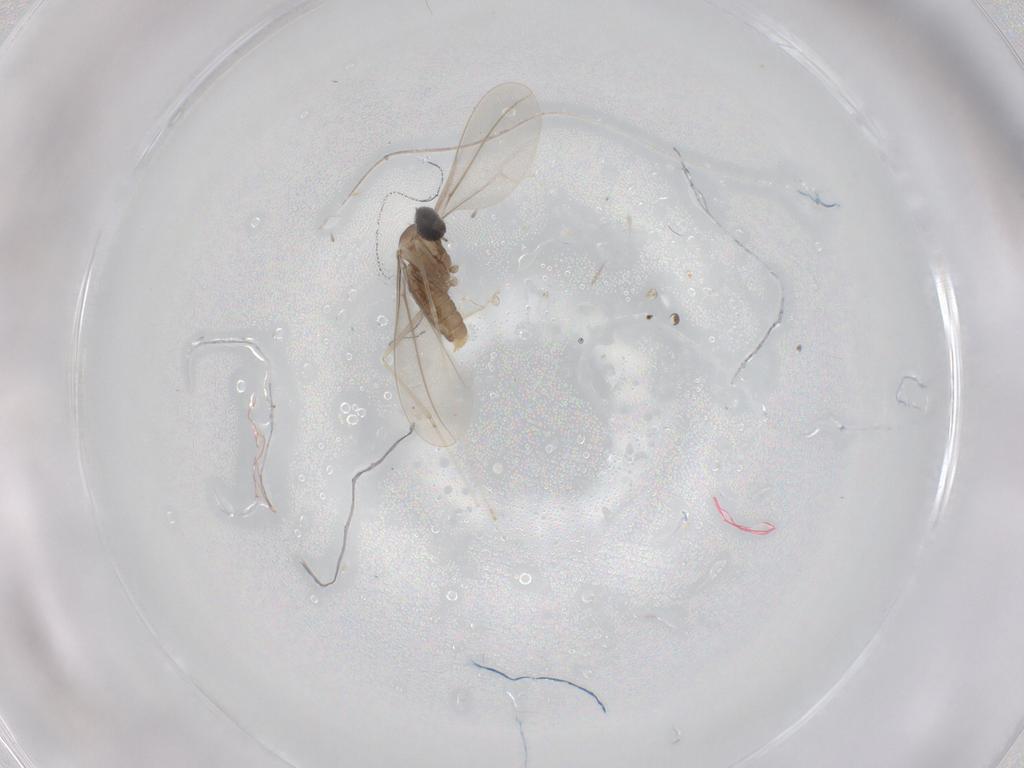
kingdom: Animalia
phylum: Arthropoda
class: Insecta
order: Diptera
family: Cecidomyiidae
